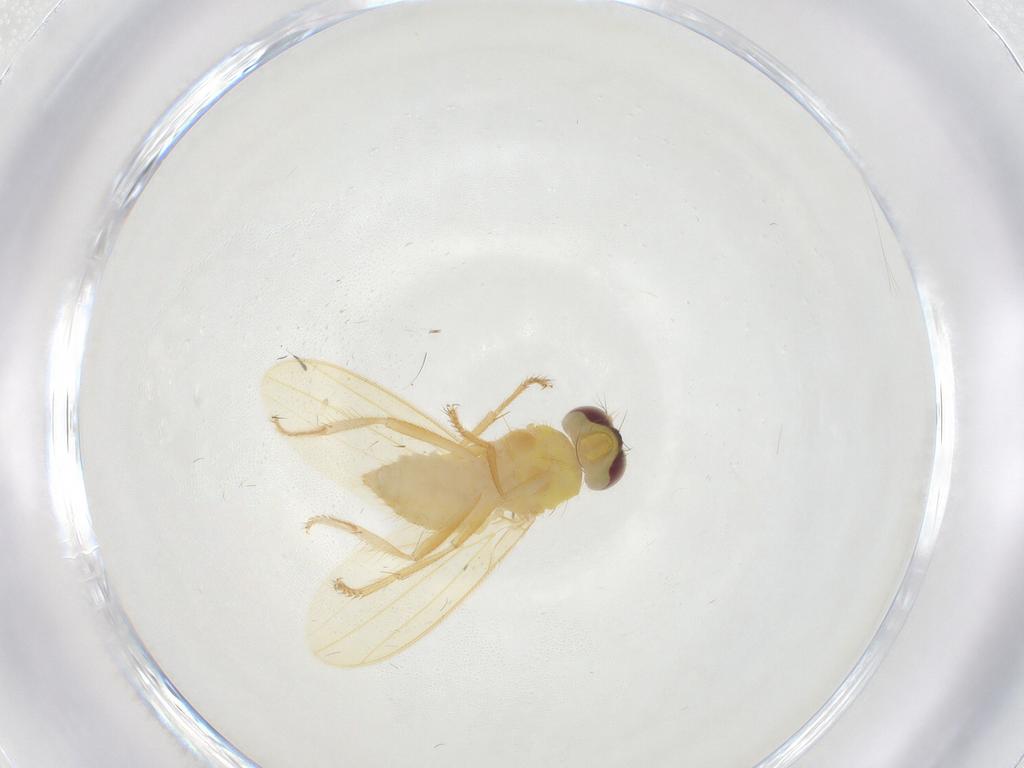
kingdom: Animalia
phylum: Arthropoda
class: Insecta
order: Diptera
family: Periscelididae
